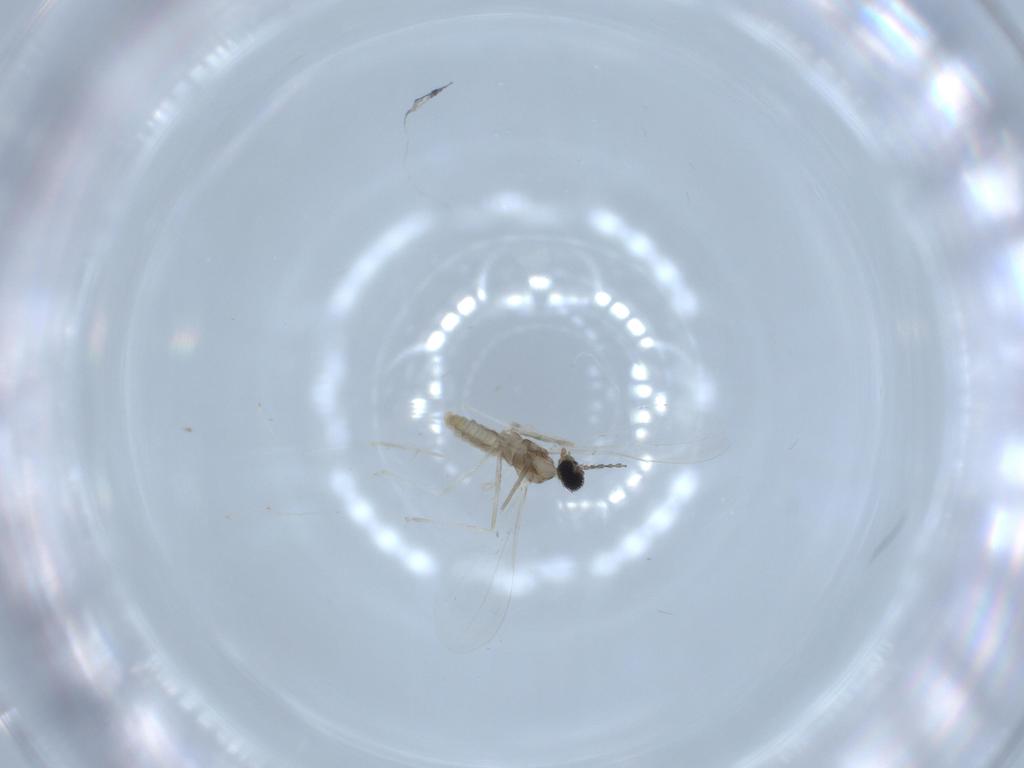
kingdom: Animalia
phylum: Arthropoda
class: Insecta
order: Diptera
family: Cecidomyiidae
